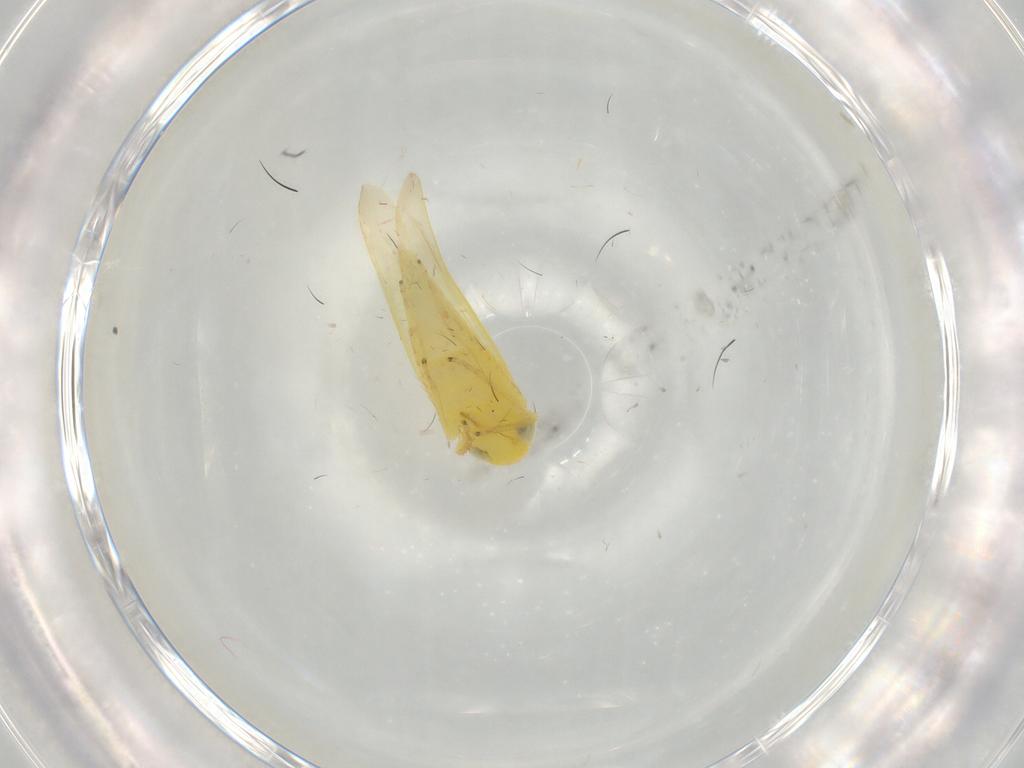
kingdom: Animalia
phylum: Arthropoda
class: Insecta
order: Hemiptera
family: Cicadellidae
